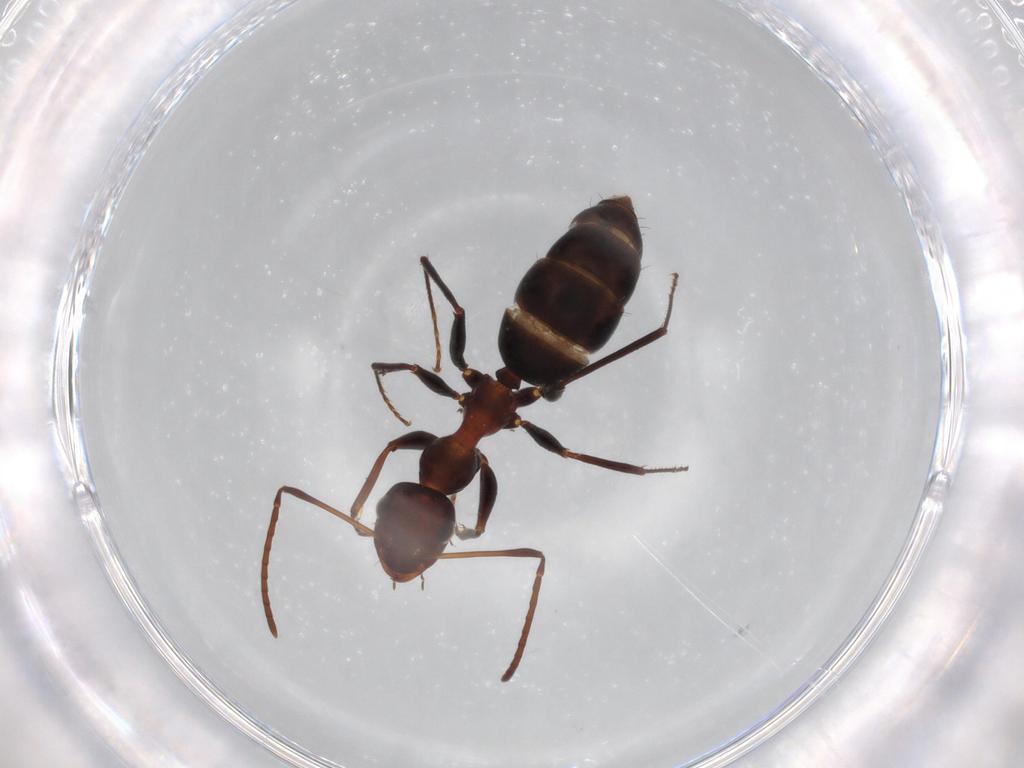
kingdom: Animalia
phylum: Arthropoda
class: Insecta
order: Hymenoptera
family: Formicidae
